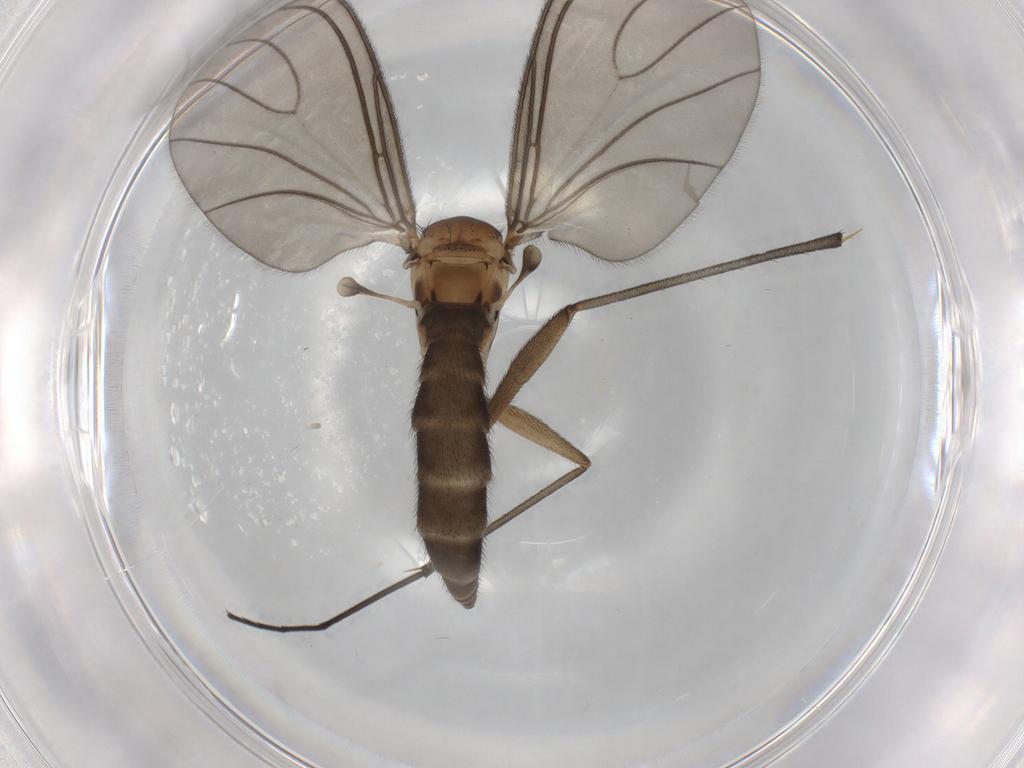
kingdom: Animalia
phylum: Arthropoda
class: Insecta
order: Diptera
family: Sciaridae
